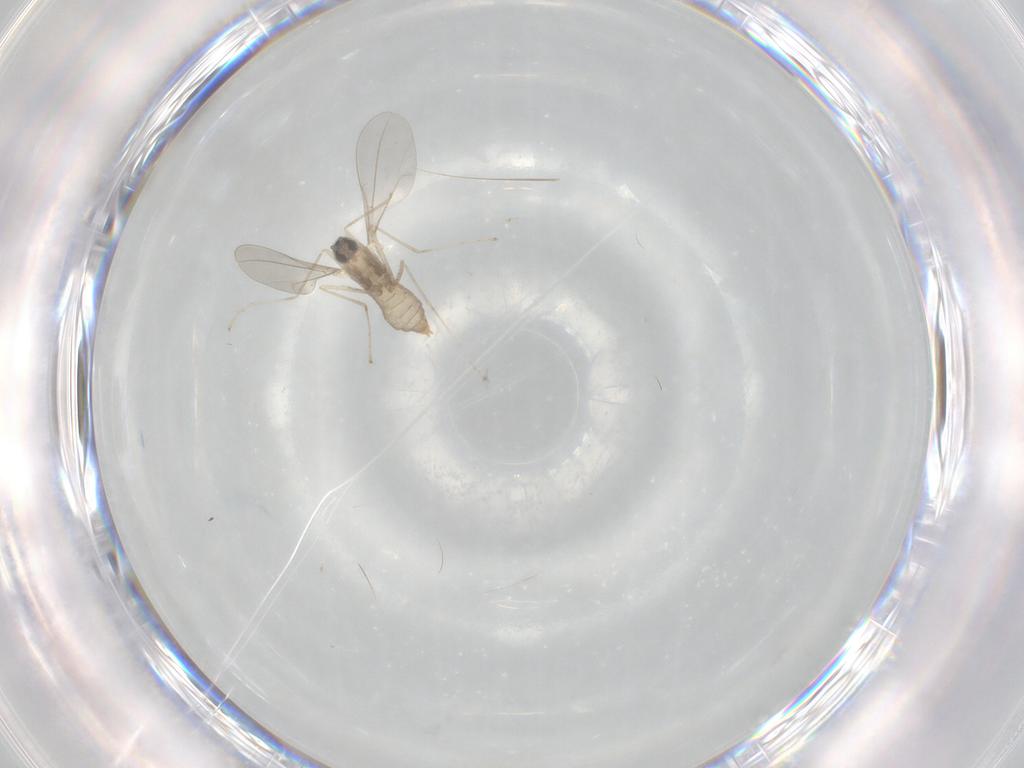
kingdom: Animalia
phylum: Arthropoda
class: Insecta
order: Diptera
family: Cecidomyiidae
